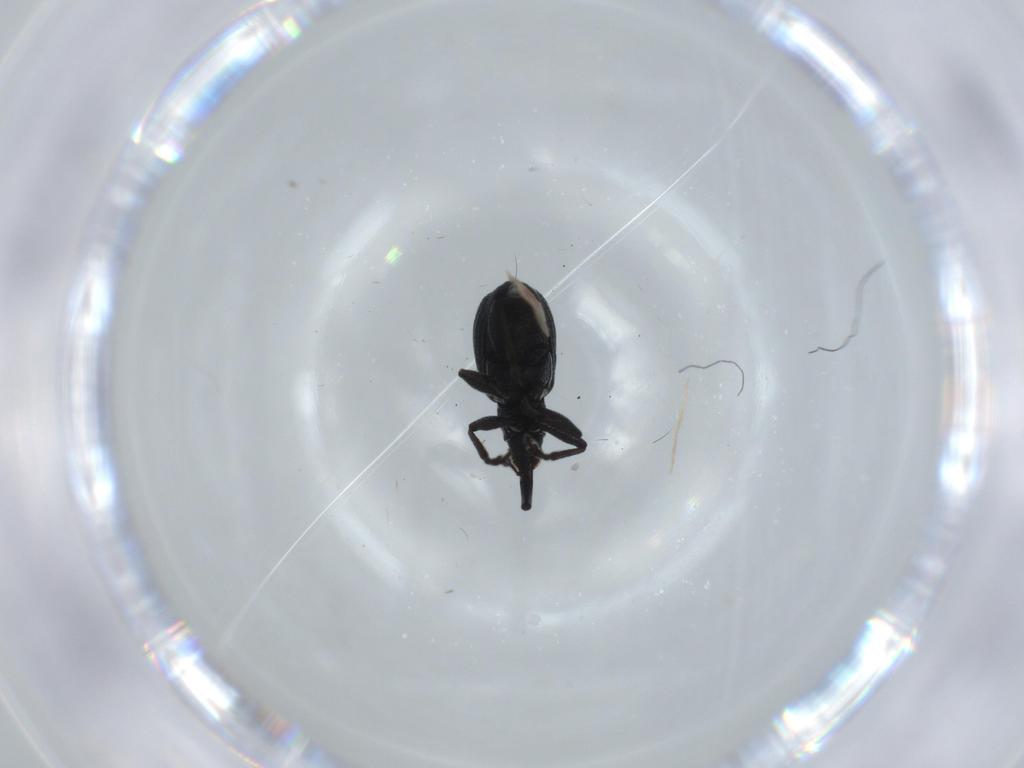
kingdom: Animalia
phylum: Arthropoda
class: Insecta
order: Coleoptera
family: Brentidae
